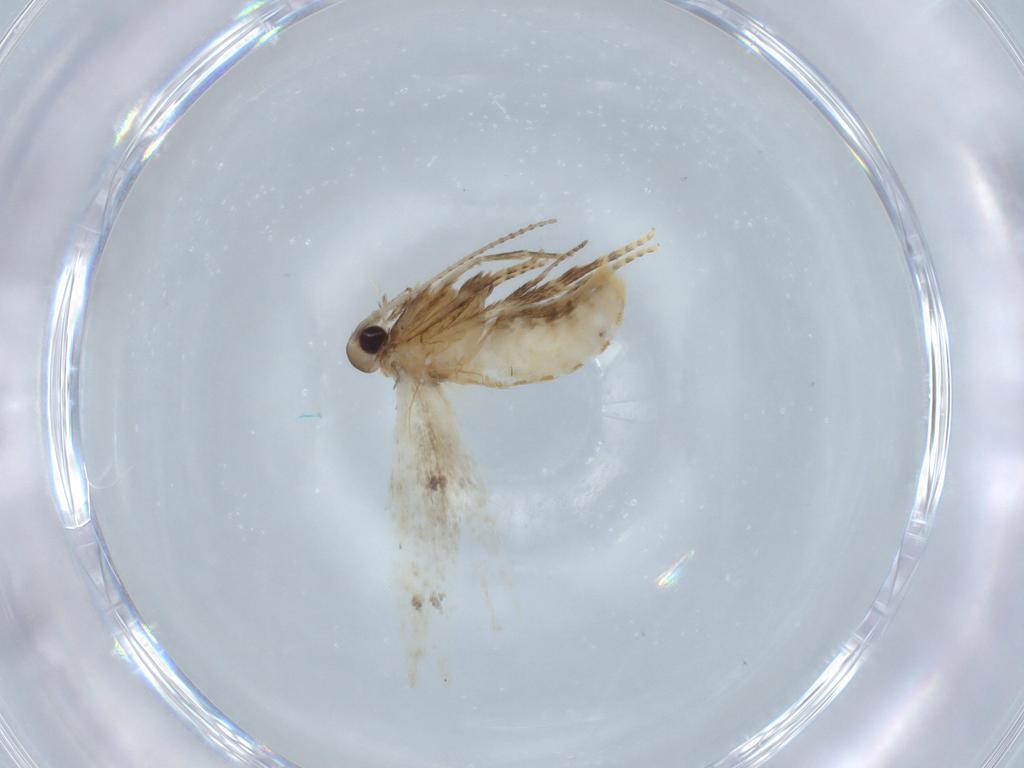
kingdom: Animalia
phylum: Arthropoda
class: Insecta
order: Lepidoptera
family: Coleophoridae
